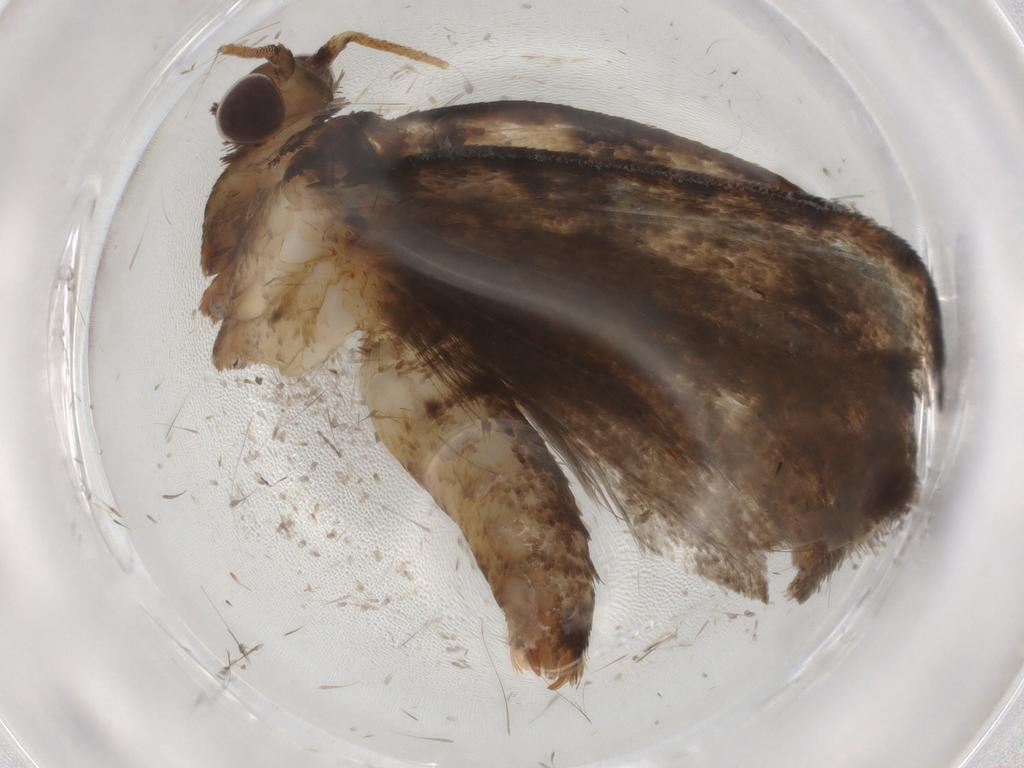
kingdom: Animalia
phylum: Arthropoda
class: Insecta
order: Lepidoptera
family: Tineidae
